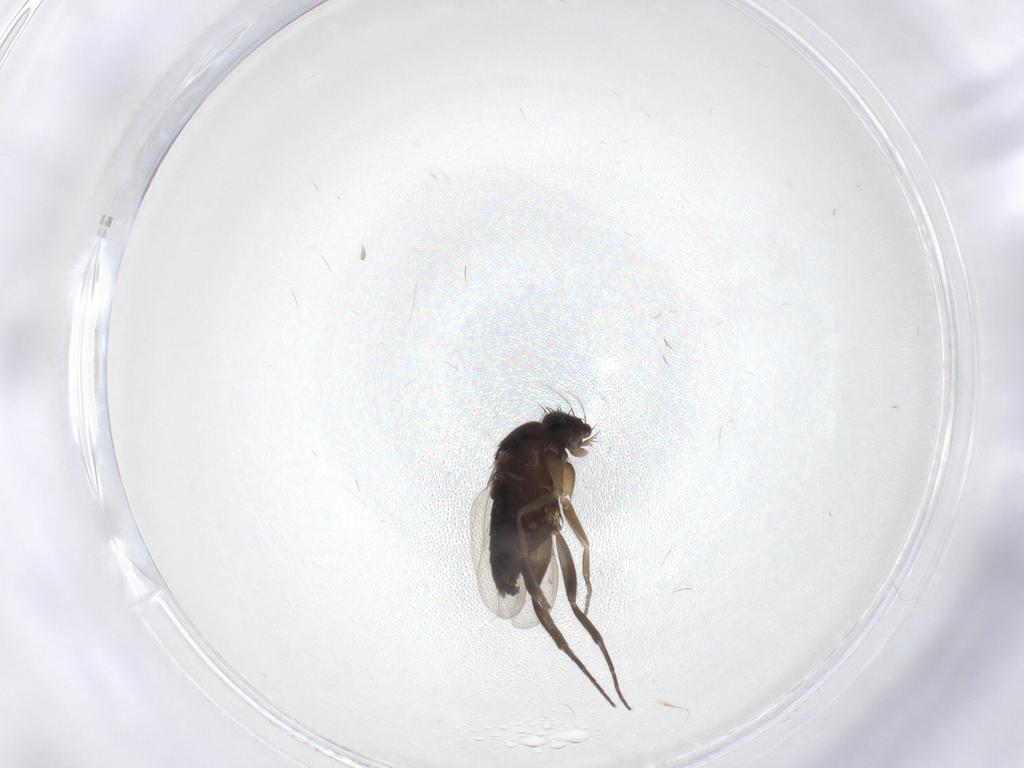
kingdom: Animalia
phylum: Arthropoda
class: Insecta
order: Diptera
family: Phoridae
